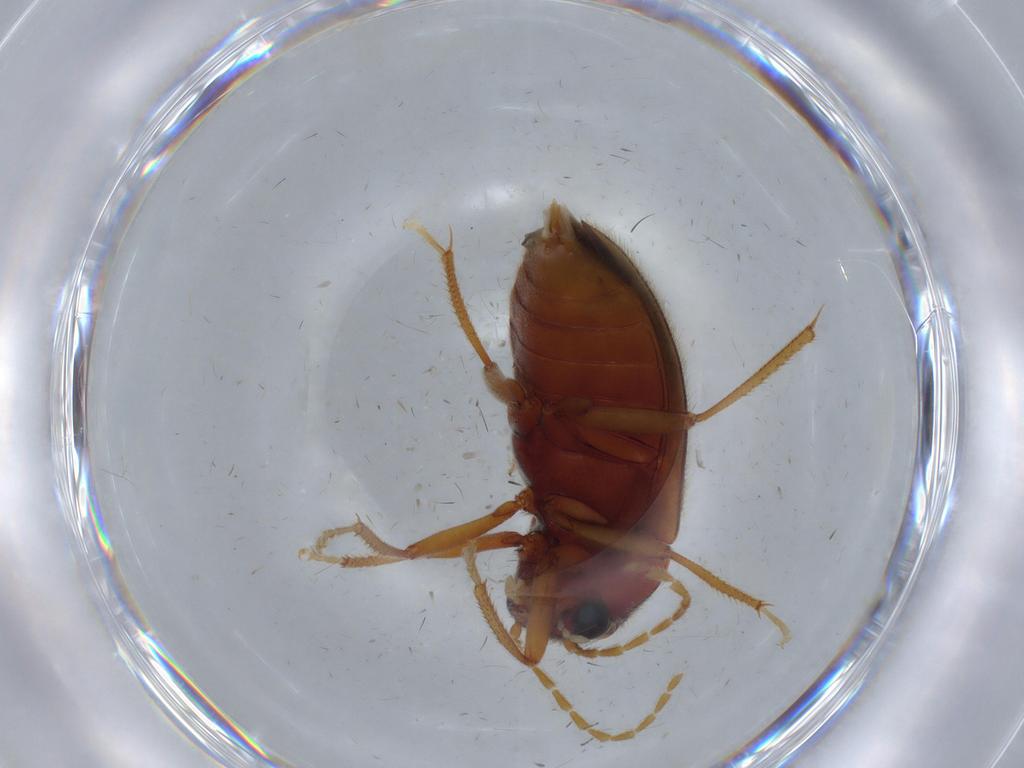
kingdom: Animalia
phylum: Arthropoda
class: Insecta
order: Coleoptera
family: Ptilodactylidae
